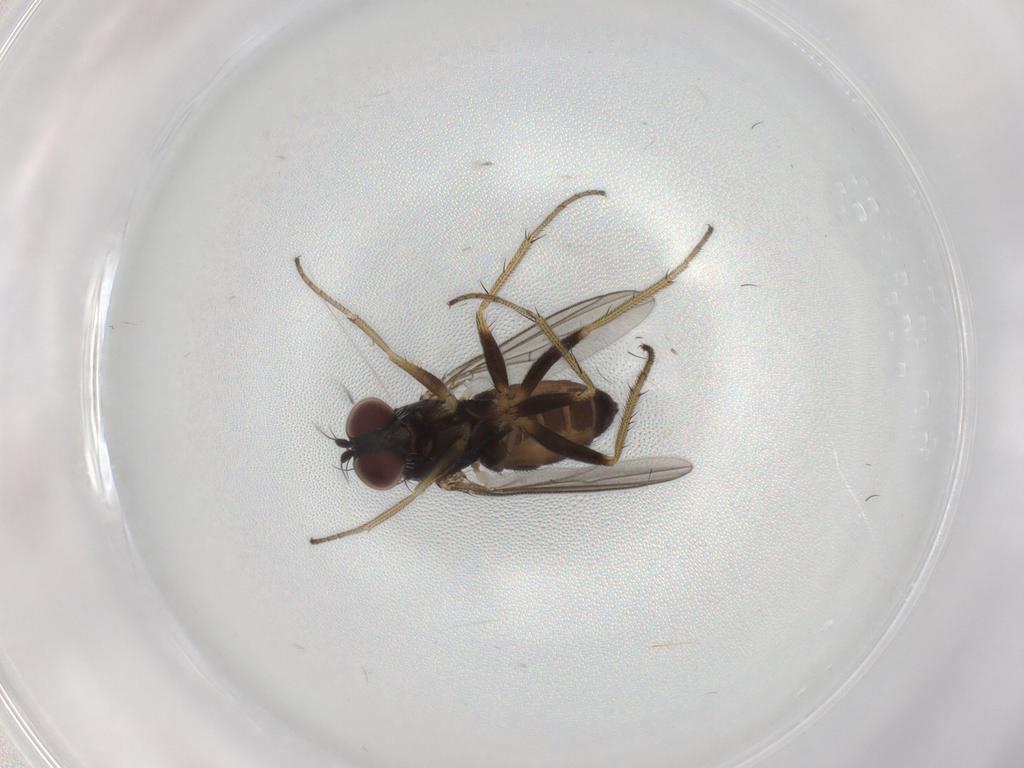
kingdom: Animalia
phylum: Arthropoda
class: Insecta
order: Diptera
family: Dolichopodidae
